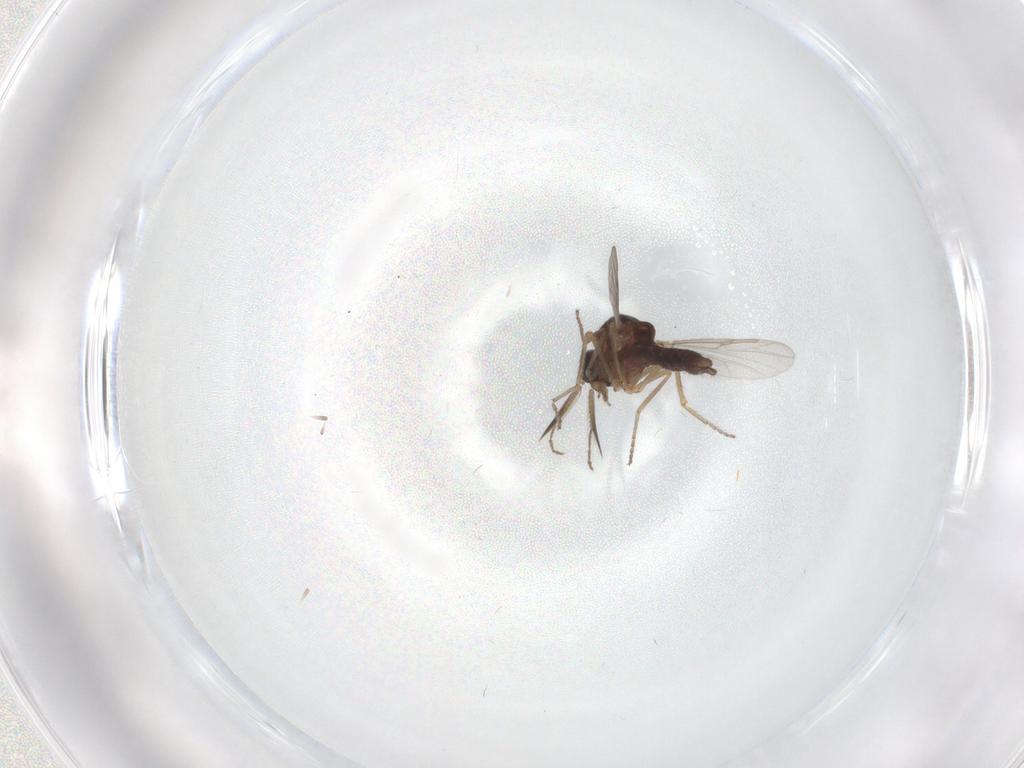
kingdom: Animalia
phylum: Arthropoda
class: Insecta
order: Diptera
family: Ceratopogonidae
